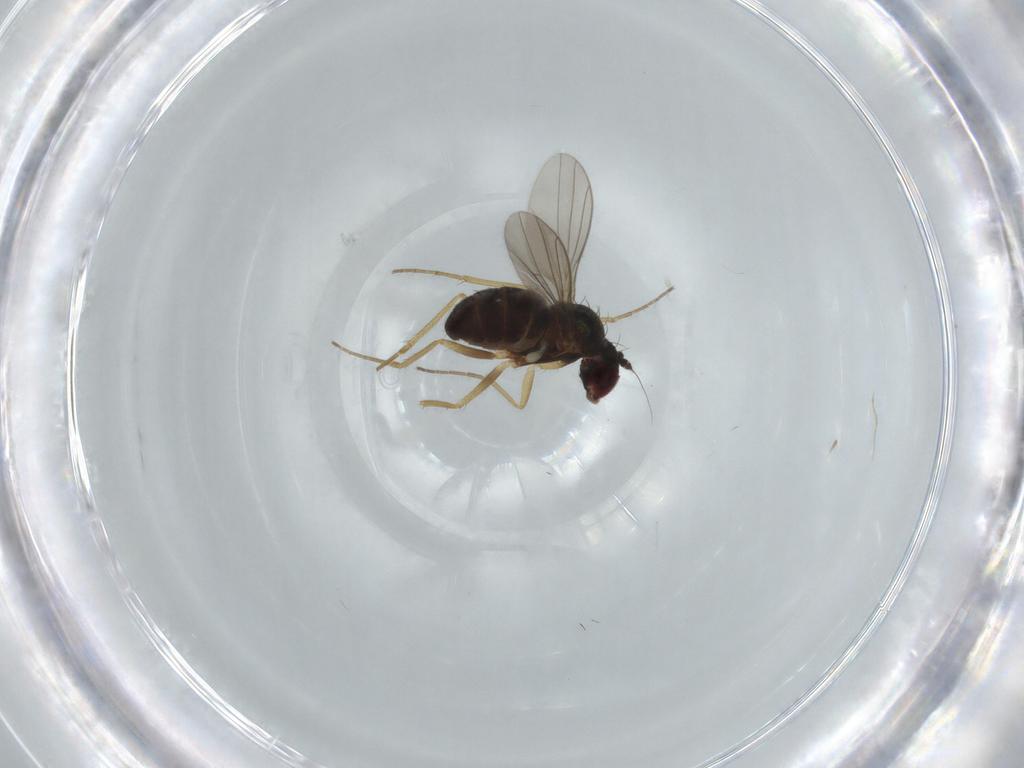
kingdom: Animalia
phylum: Arthropoda
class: Insecta
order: Diptera
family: Dolichopodidae
